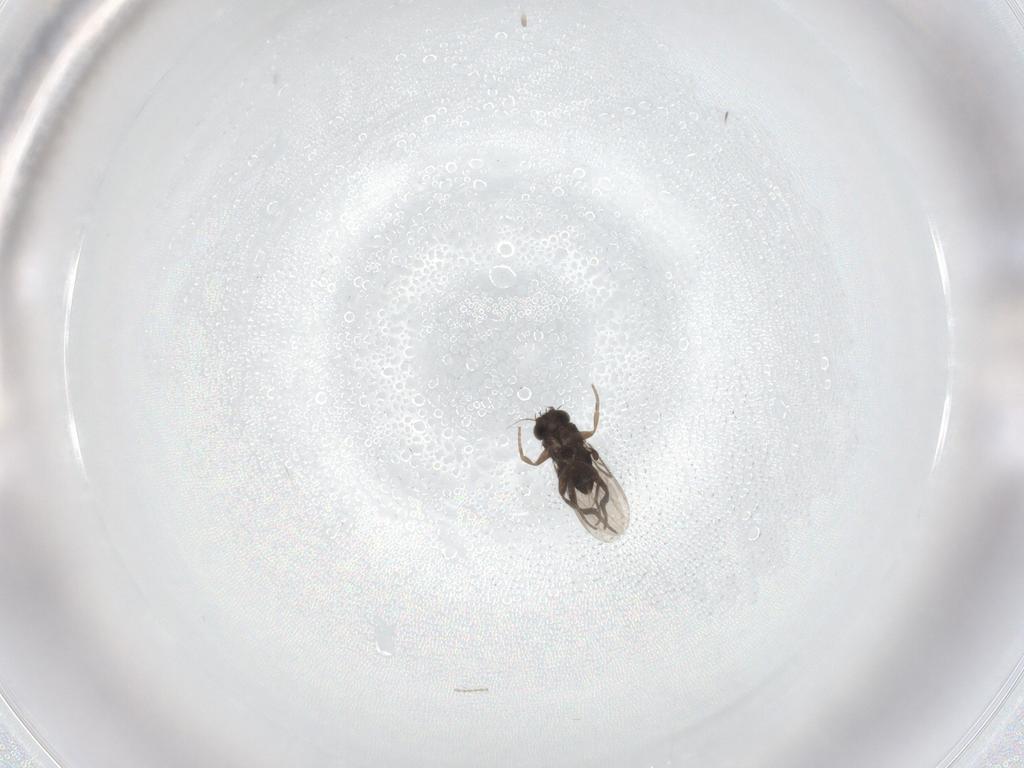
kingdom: Animalia
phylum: Arthropoda
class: Insecta
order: Diptera
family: Phoridae
